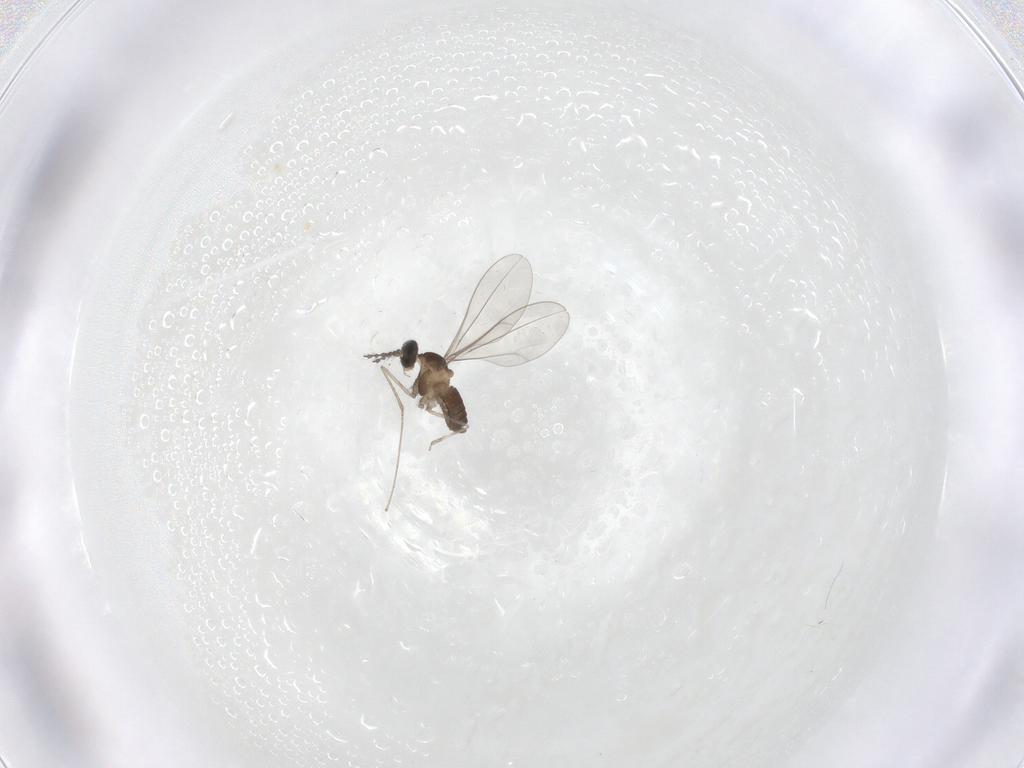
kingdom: Animalia
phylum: Arthropoda
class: Insecta
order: Diptera
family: Cecidomyiidae
